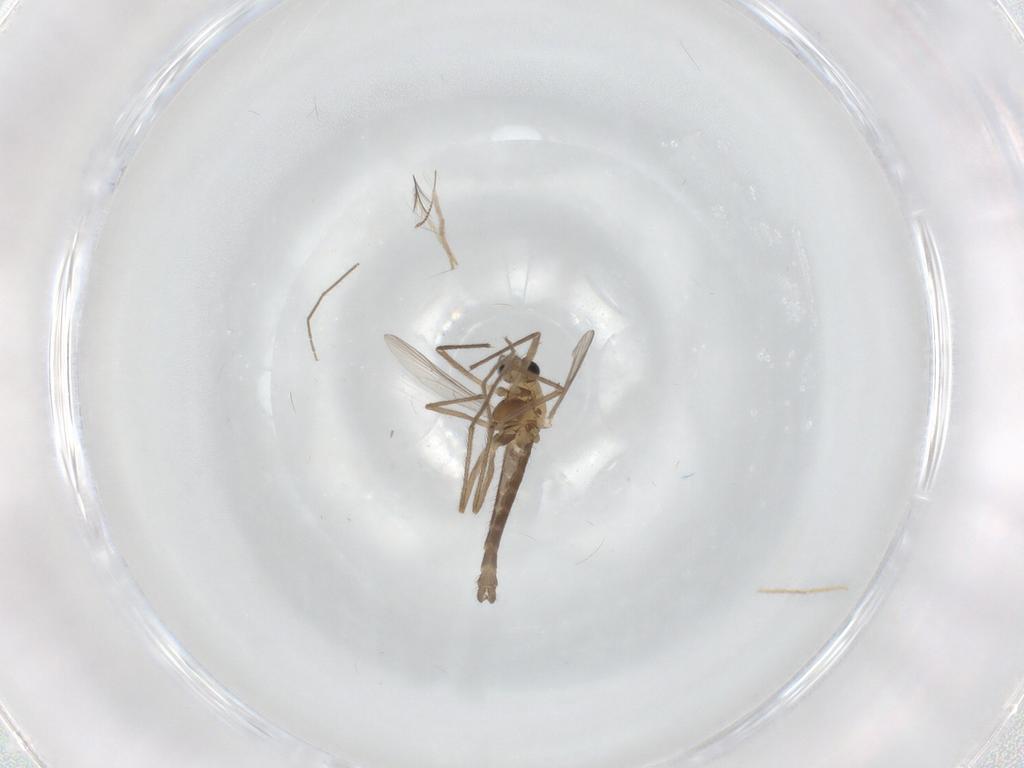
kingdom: Animalia
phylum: Arthropoda
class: Insecta
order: Diptera
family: Chironomidae
